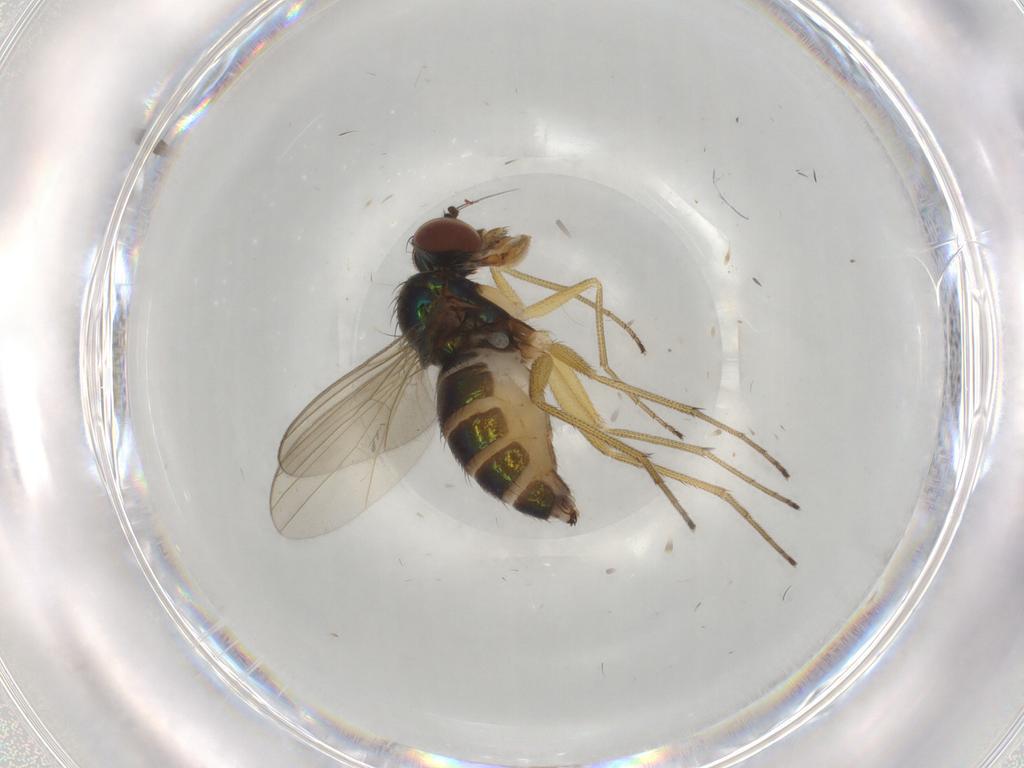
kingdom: Animalia
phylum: Arthropoda
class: Insecta
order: Diptera
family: Dolichopodidae
